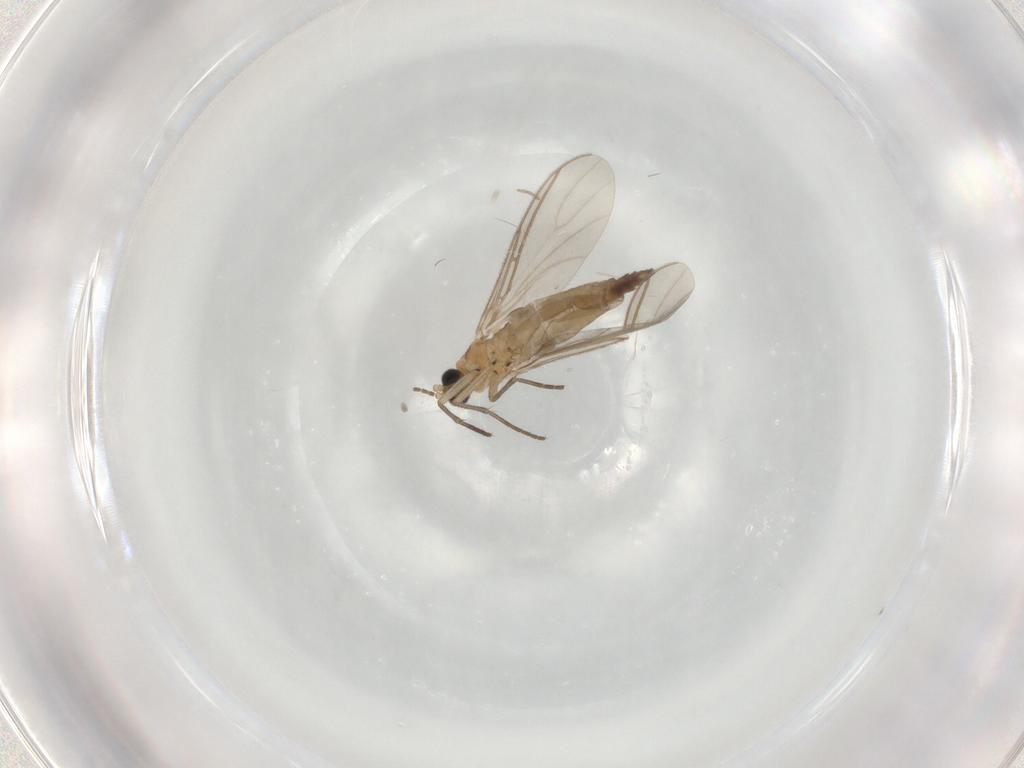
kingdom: Animalia
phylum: Arthropoda
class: Insecta
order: Diptera
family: Sciaridae
